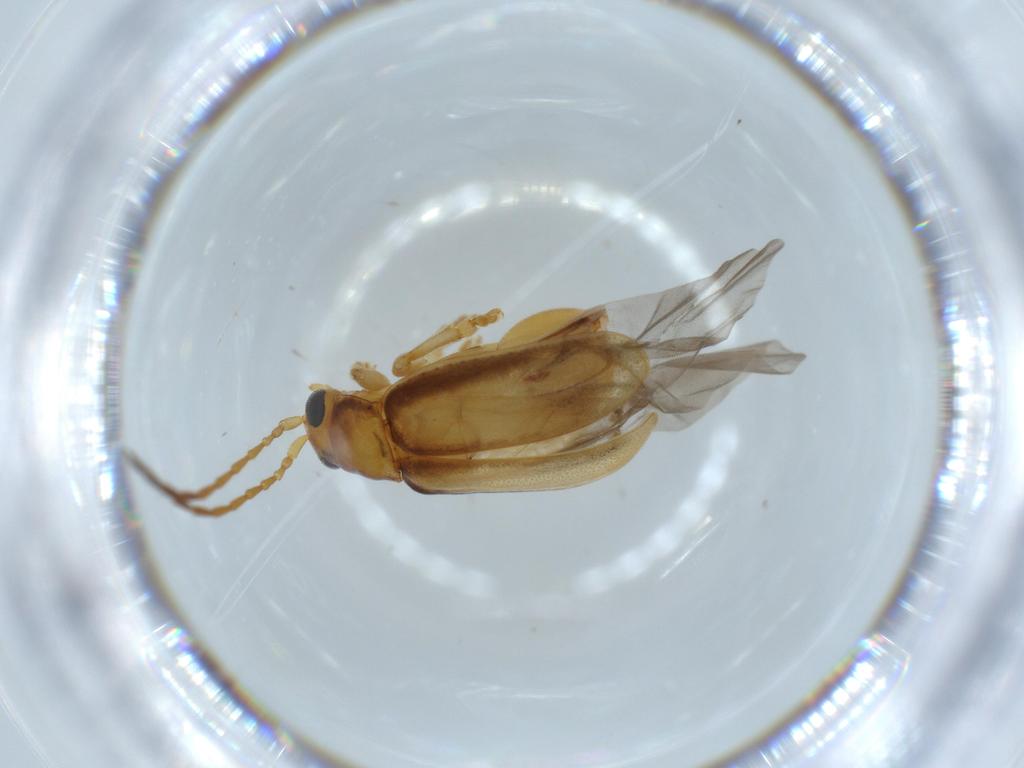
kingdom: Animalia
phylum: Arthropoda
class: Insecta
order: Coleoptera
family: Chrysomelidae
